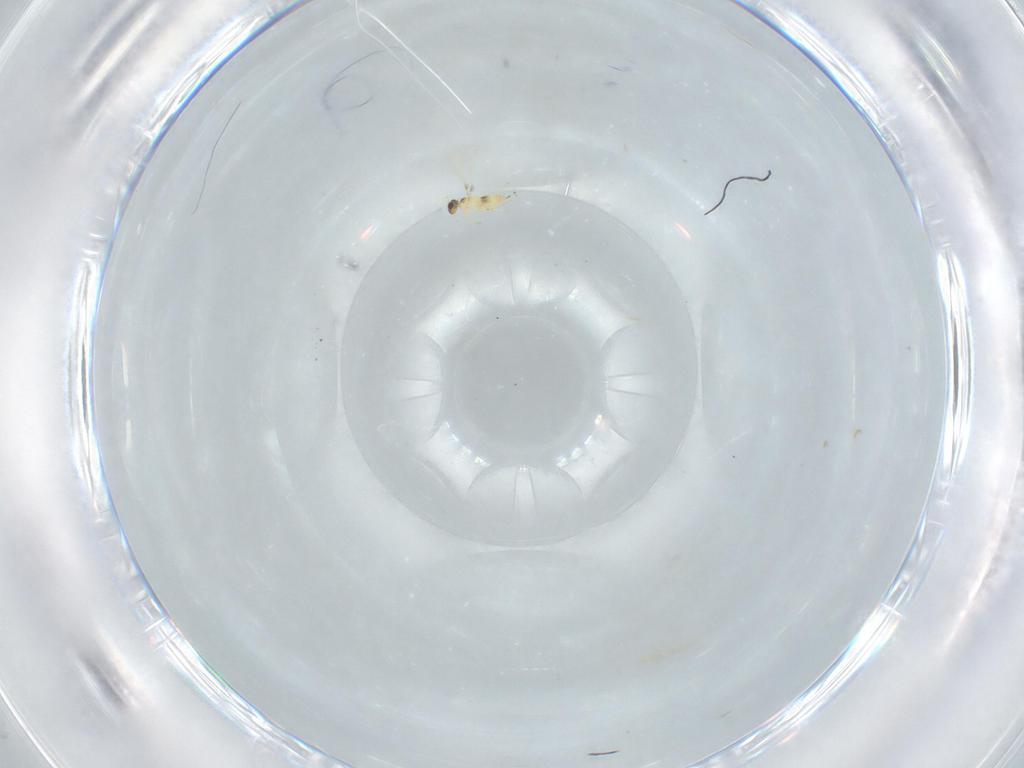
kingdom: Animalia
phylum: Arthropoda
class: Insecta
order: Hymenoptera
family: Mymaridae
